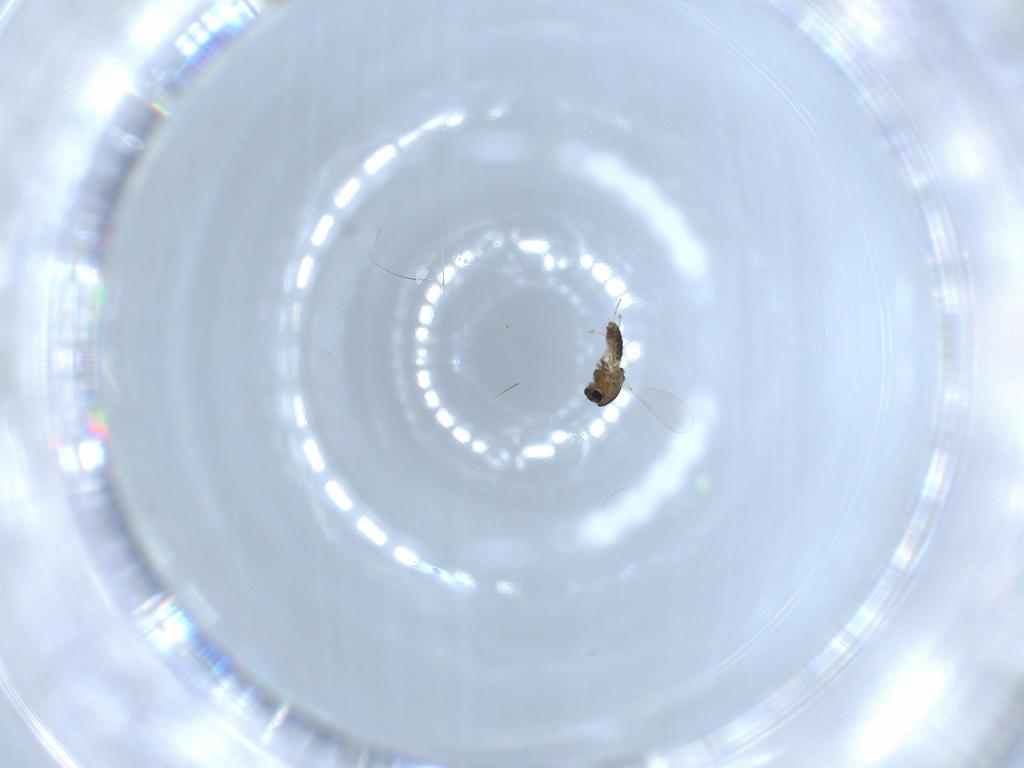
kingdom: Animalia
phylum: Arthropoda
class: Insecta
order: Diptera
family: Chironomidae
